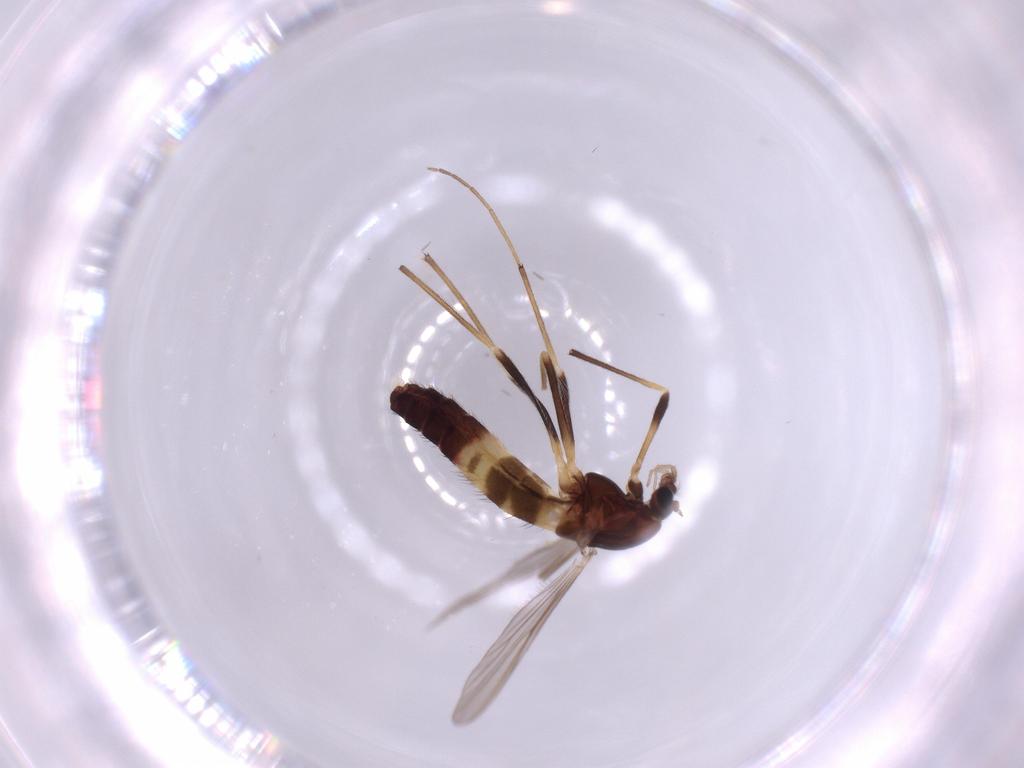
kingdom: Animalia
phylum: Arthropoda
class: Insecta
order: Diptera
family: Chironomidae
